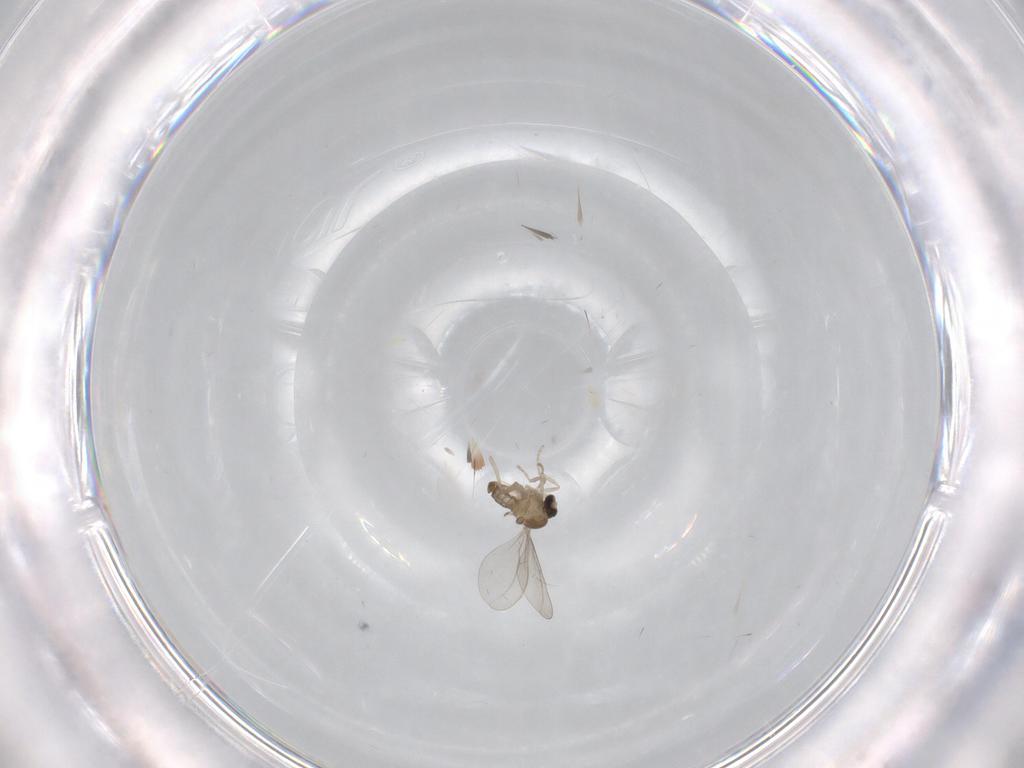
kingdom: Animalia
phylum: Arthropoda
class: Insecta
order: Diptera
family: Cecidomyiidae
